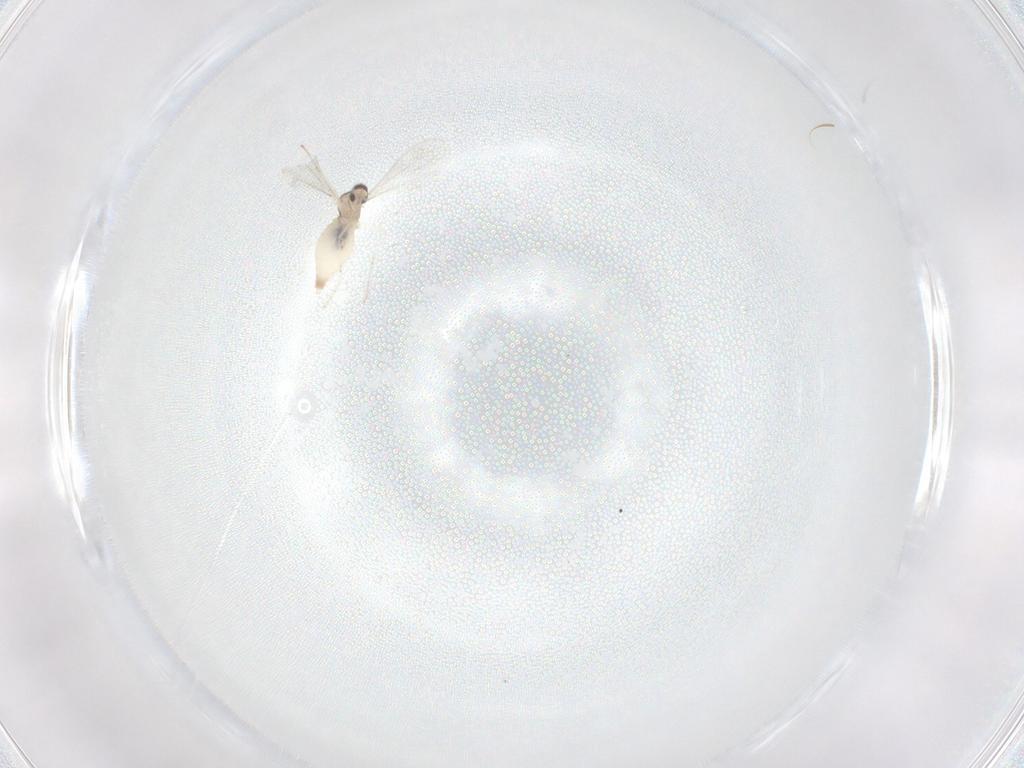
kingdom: Animalia
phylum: Arthropoda
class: Insecta
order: Diptera
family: Cecidomyiidae
